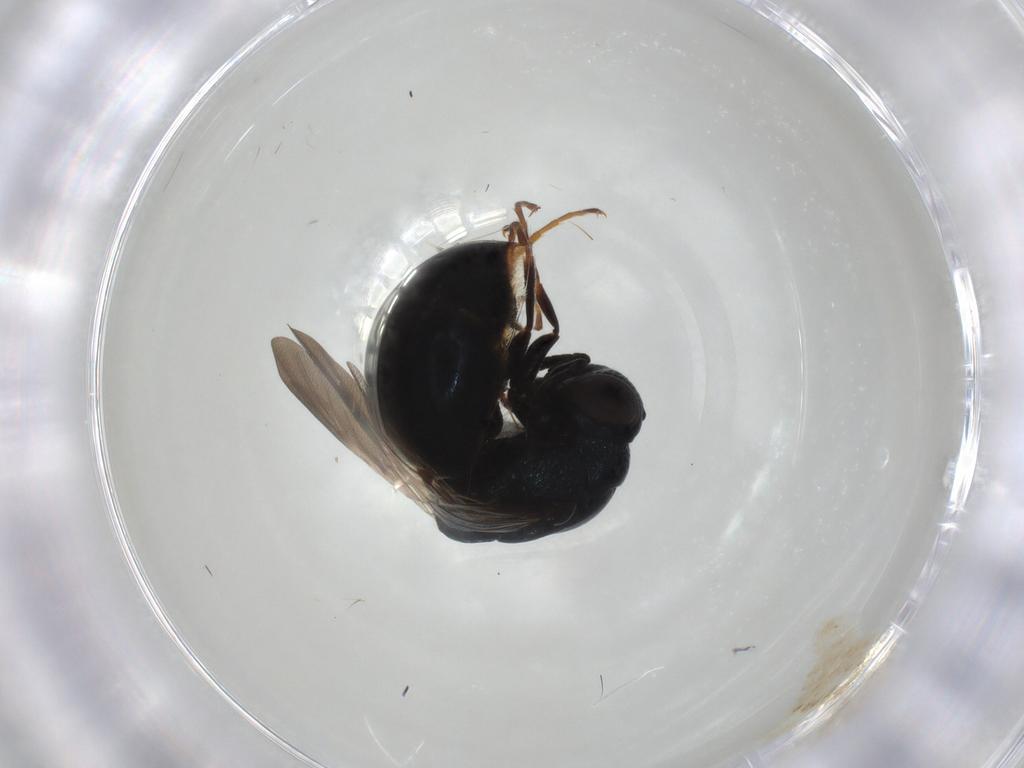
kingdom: Animalia
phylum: Arthropoda
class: Insecta
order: Hymenoptera
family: Chrysididae
